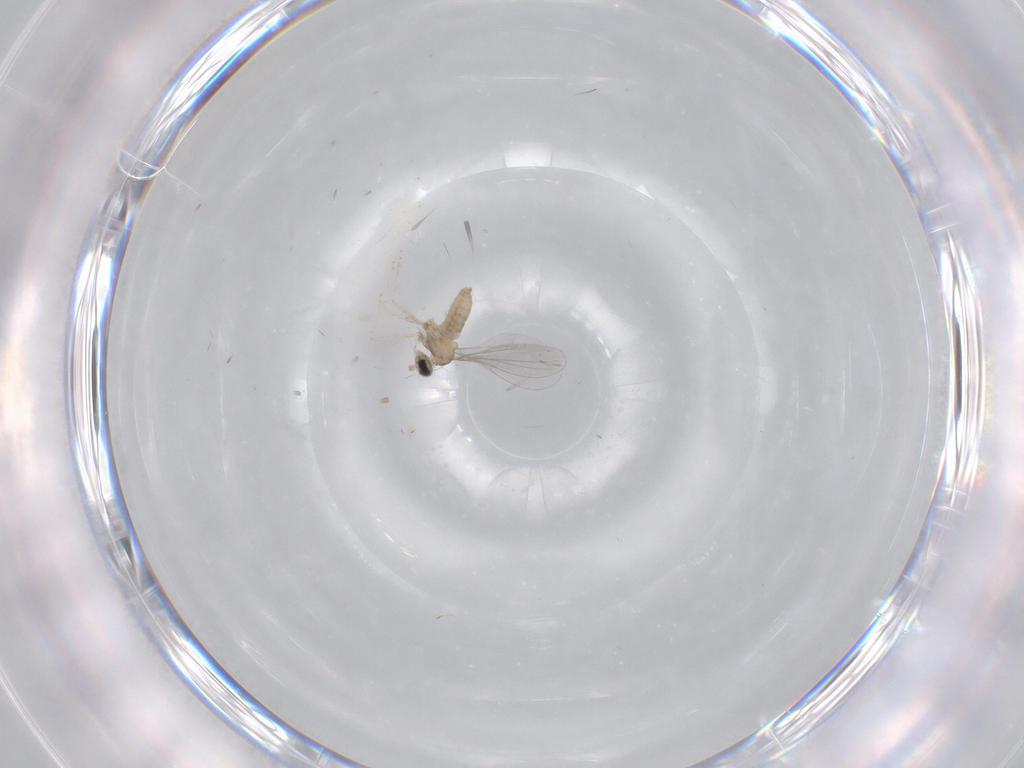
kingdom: Animalia
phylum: Arthropoda
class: Insecta
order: Diptera
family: Cecidomyiidae
